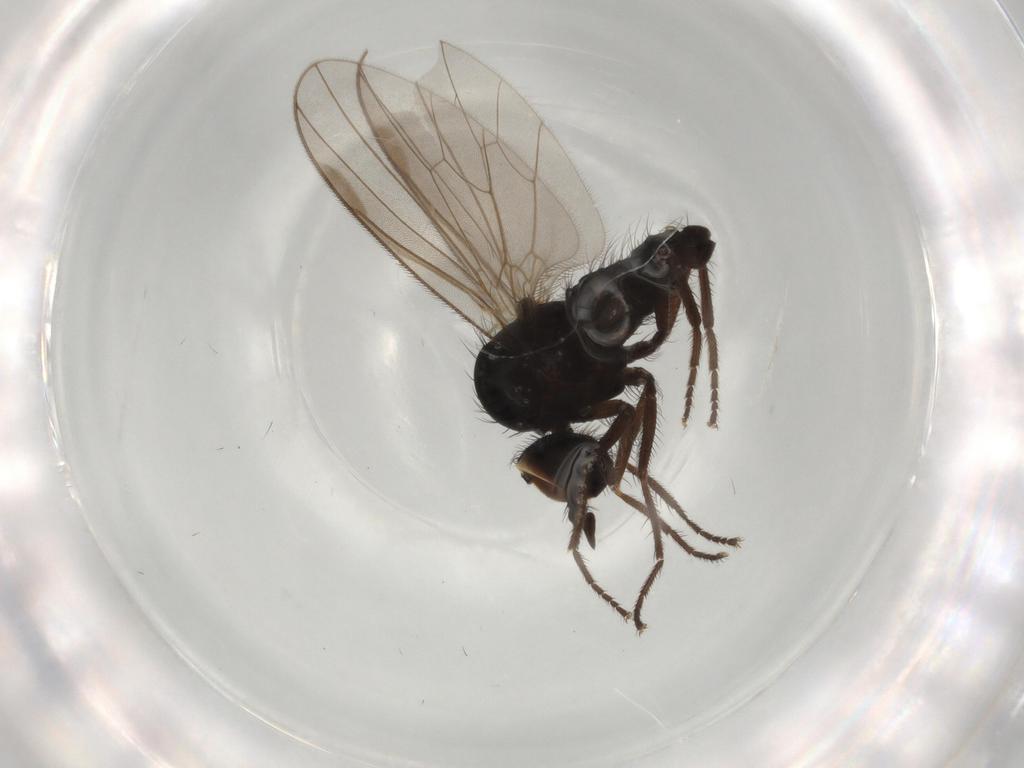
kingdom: Animalia
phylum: Arthropoda
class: Insecta
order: Diptera
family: Dolichopodidae
